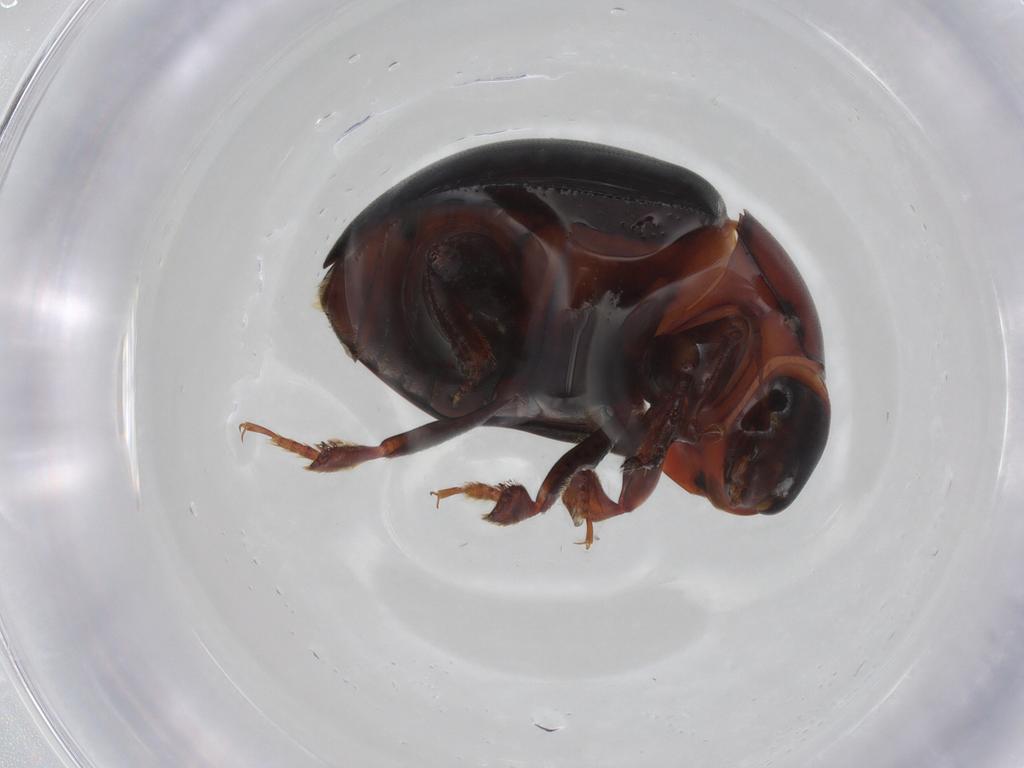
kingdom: Animalia
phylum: Arthropoda
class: Insecta
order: Coleoptera
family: Nitidulidae
